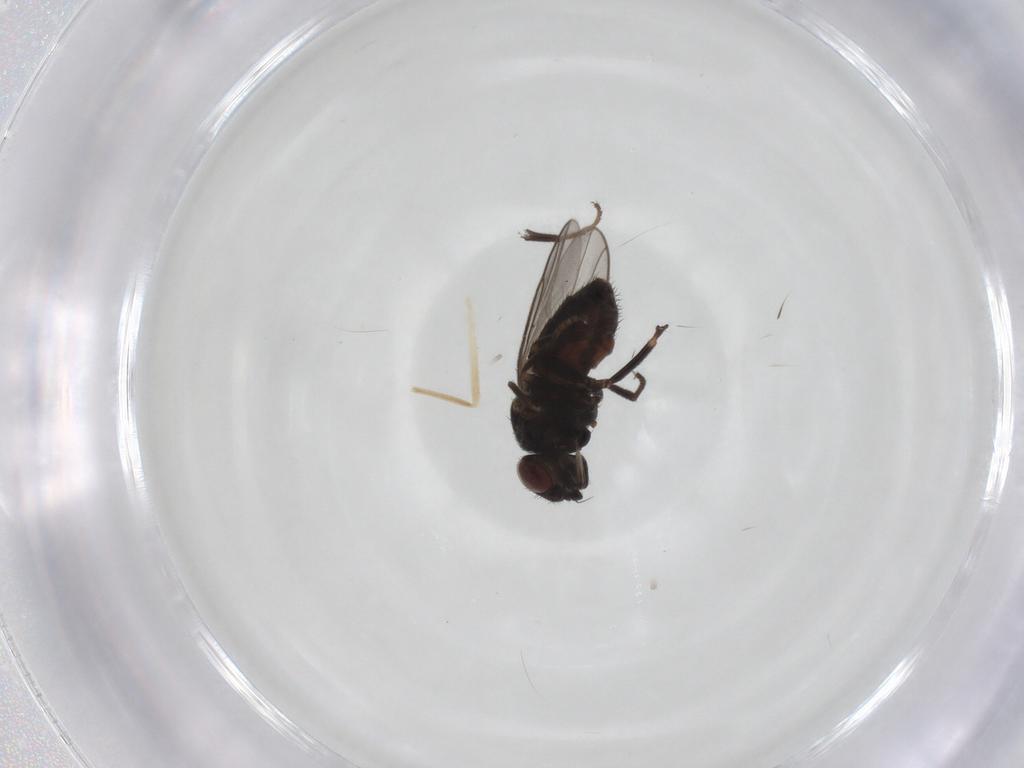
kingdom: Animalia
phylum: Arthropoda
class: Insecta
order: Diptera
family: Chloropidae
